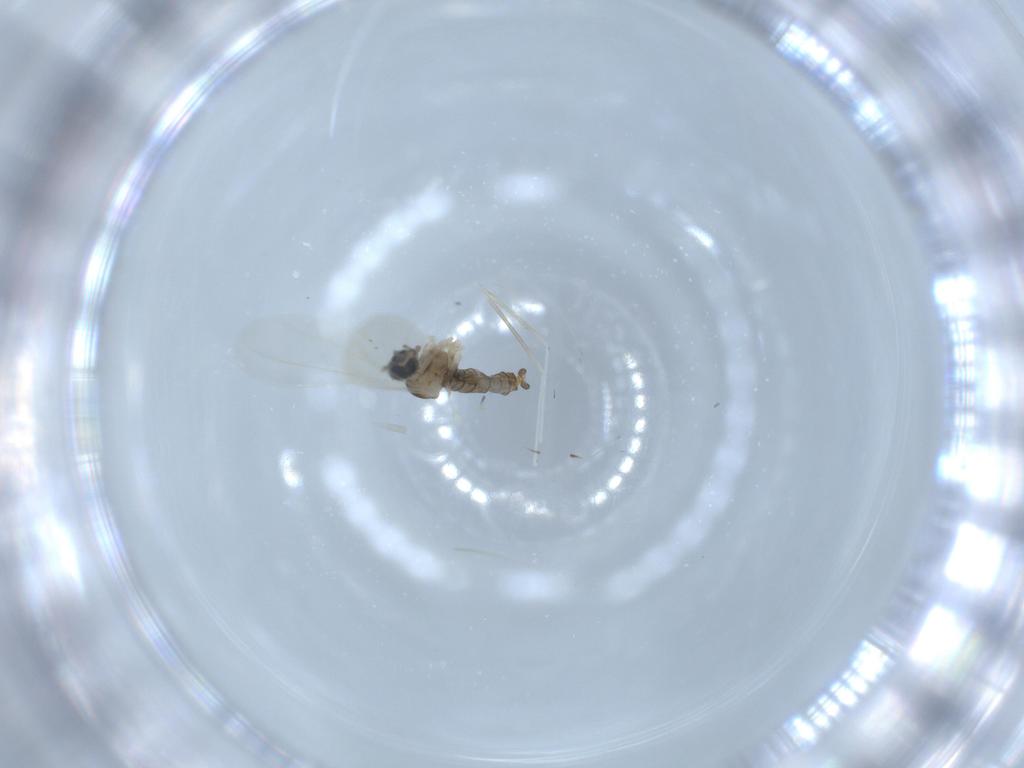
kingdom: Animalia
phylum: Arthropoda
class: Insecta
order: Diptera
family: Cecidomyiidae
